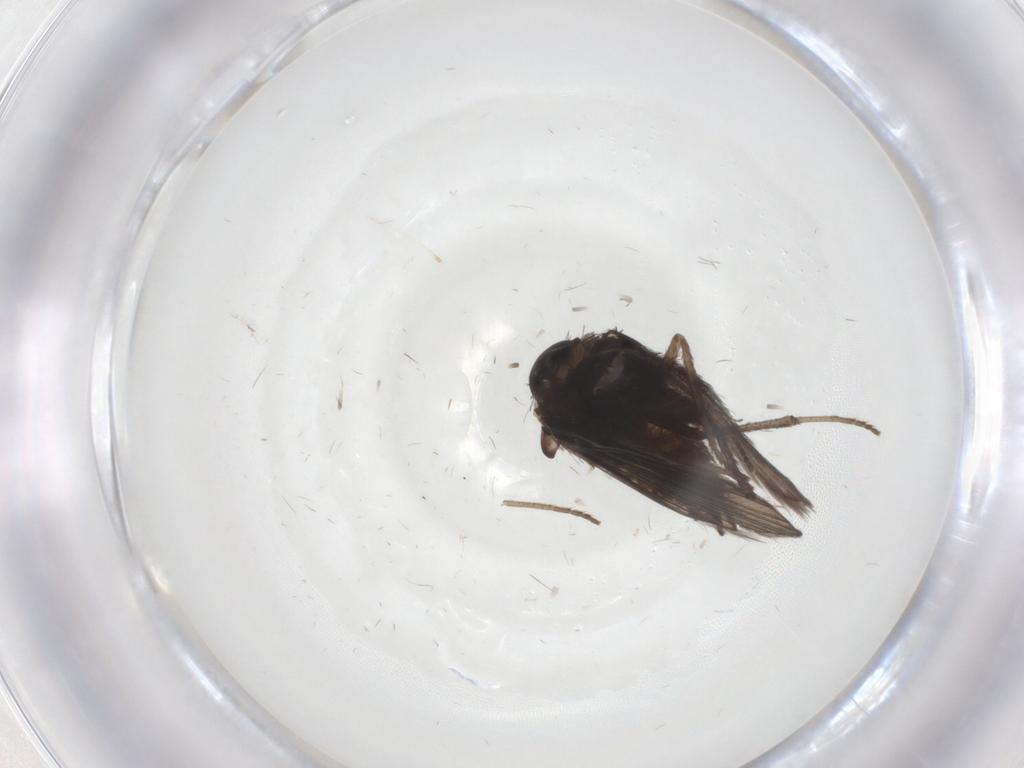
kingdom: Animalia
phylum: Arthropoda
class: Insecta
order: Diptera
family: Psychodidae
